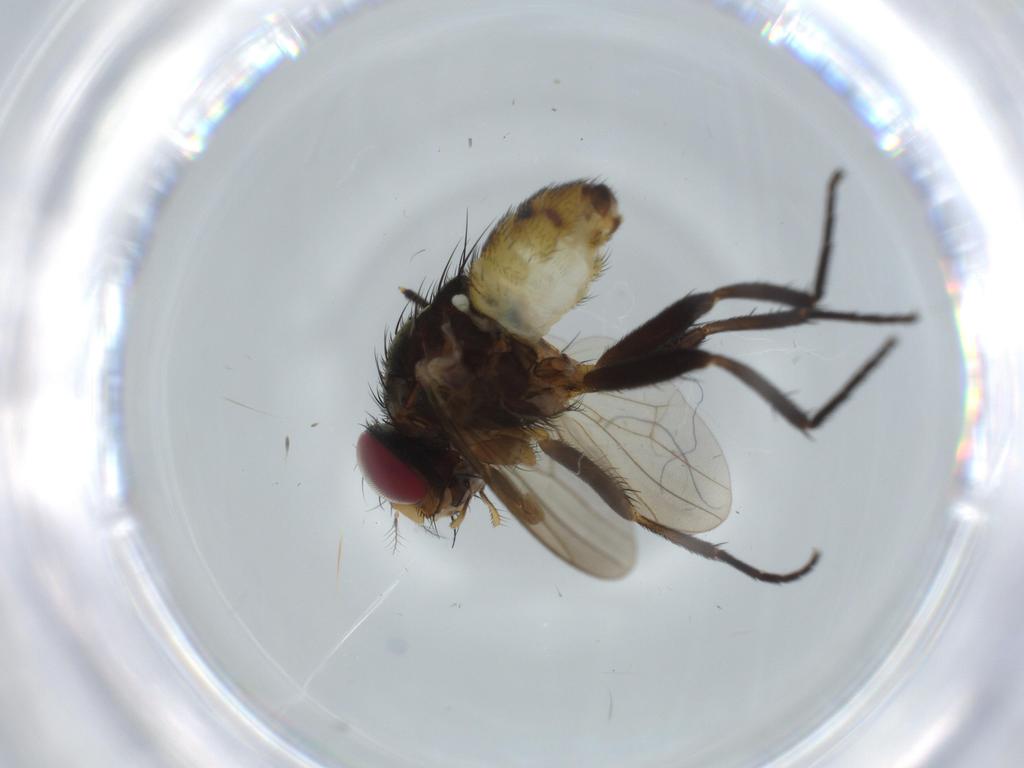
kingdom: Animalia
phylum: Arthropoda
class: Insecta
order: Diptera
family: Anthomyiidae
